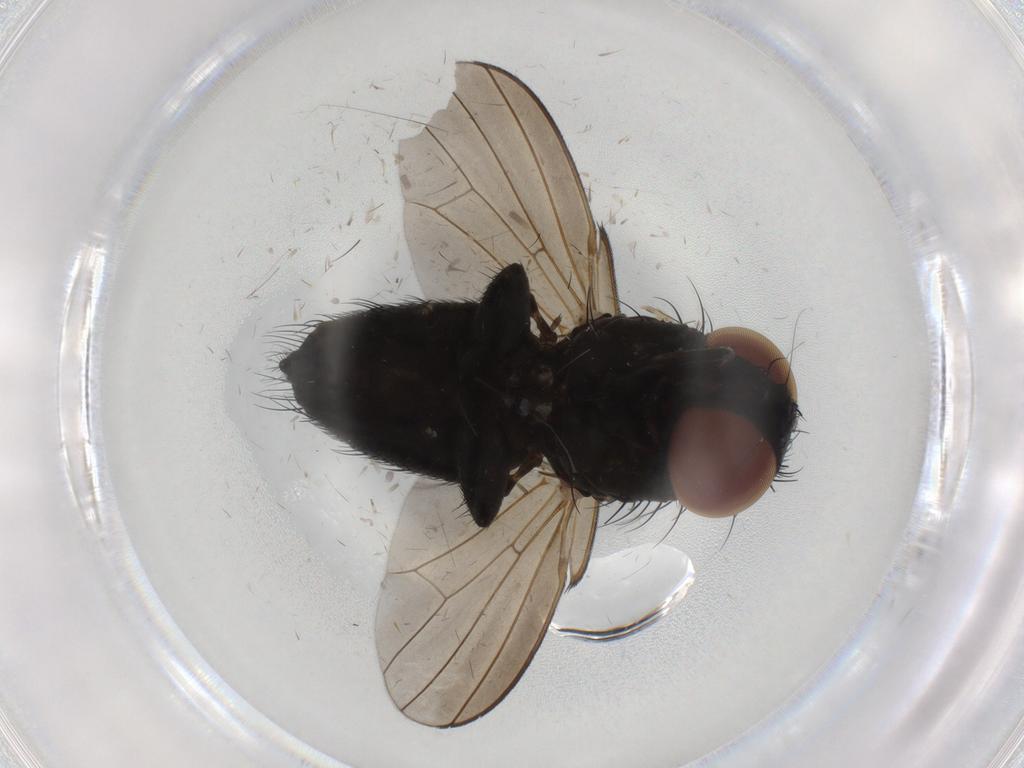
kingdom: Animalia
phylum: Arthropoda
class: Insecta
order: Diptera
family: Milichiidae
